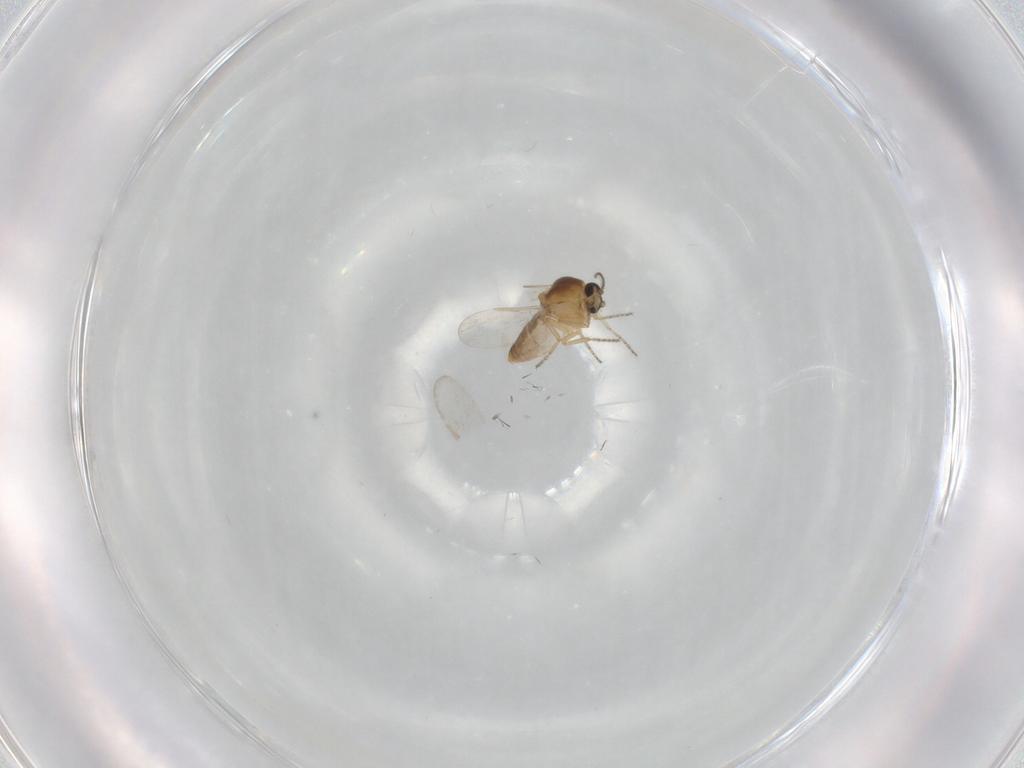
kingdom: Animalia
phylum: Arthropoda
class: Insecta
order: Diptera
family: Ceratopogonidae
